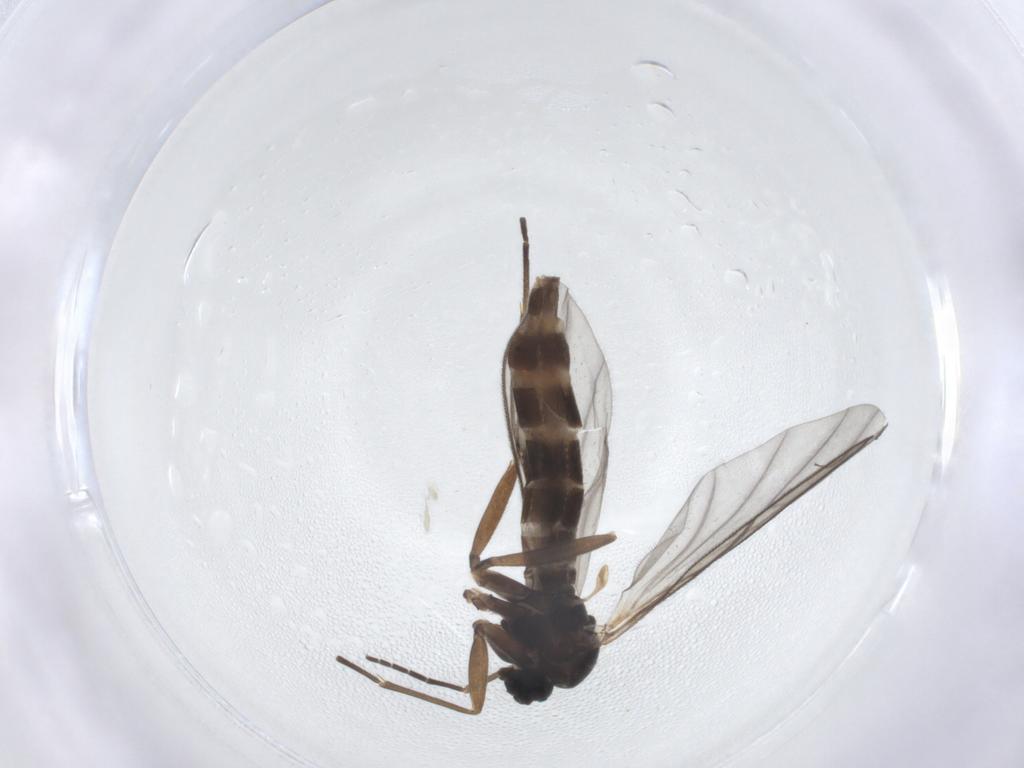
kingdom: Animalia
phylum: Arthropoda
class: Insecta
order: Diptera
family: Sciaridae
